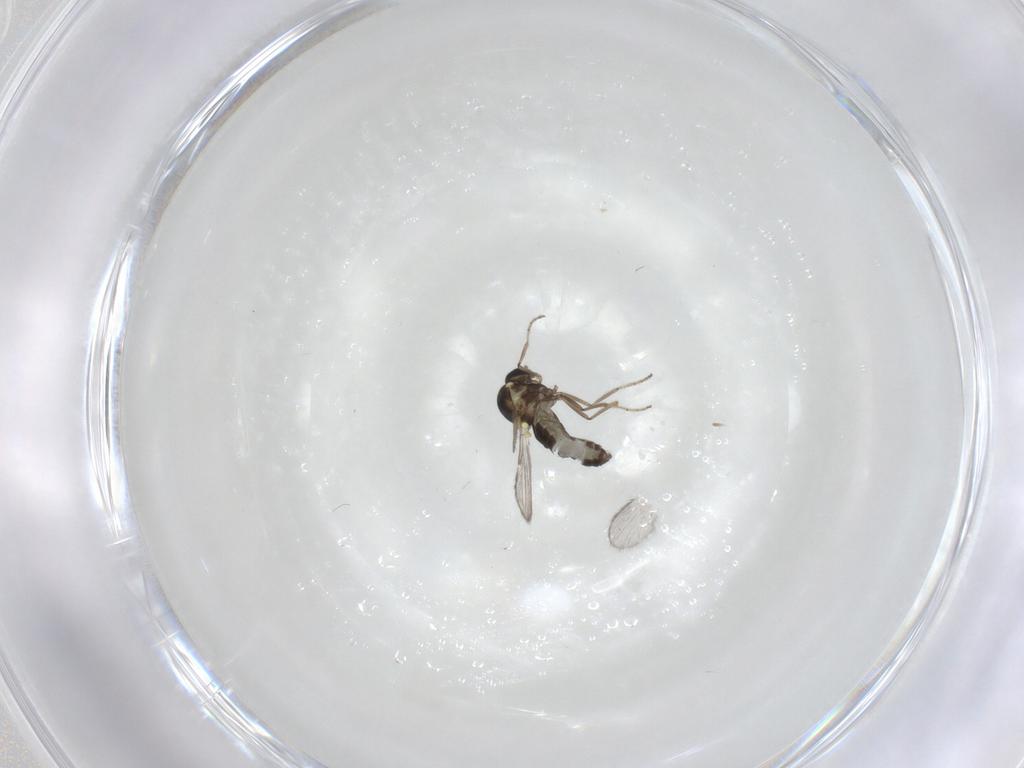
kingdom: Animalia
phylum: Arthropoda
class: Insecta
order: Diptera
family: Ceratopogonidae
